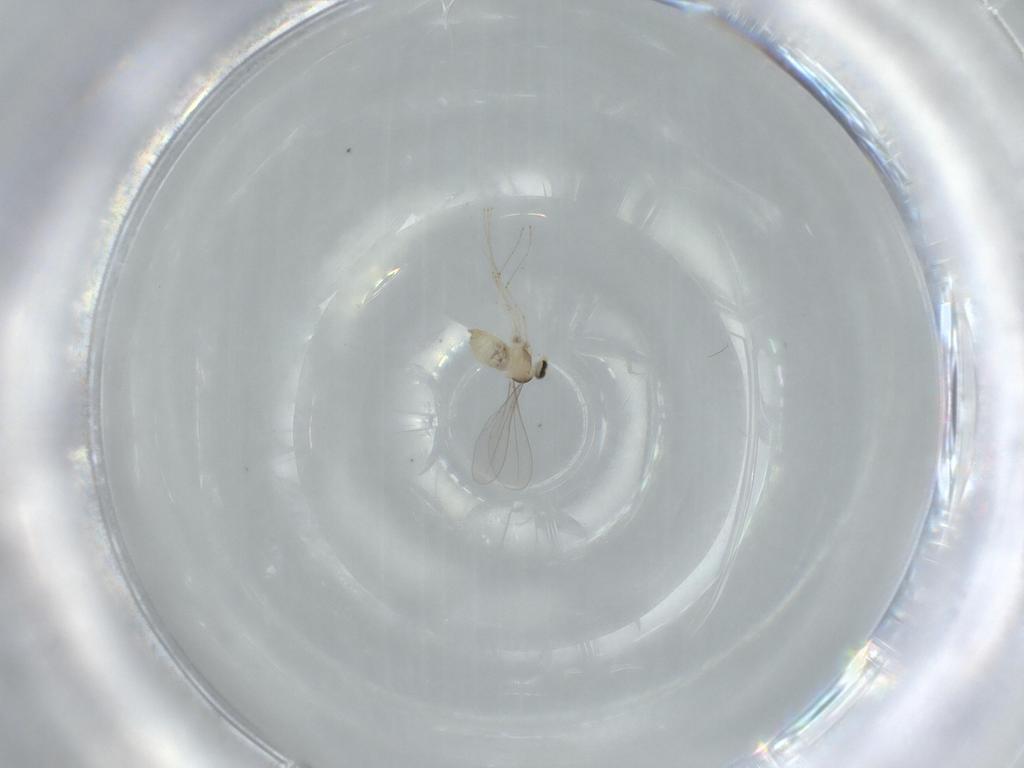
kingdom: Animalia
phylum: Arthropoda
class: Insecta
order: Diptera
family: Cecidomyiidae
